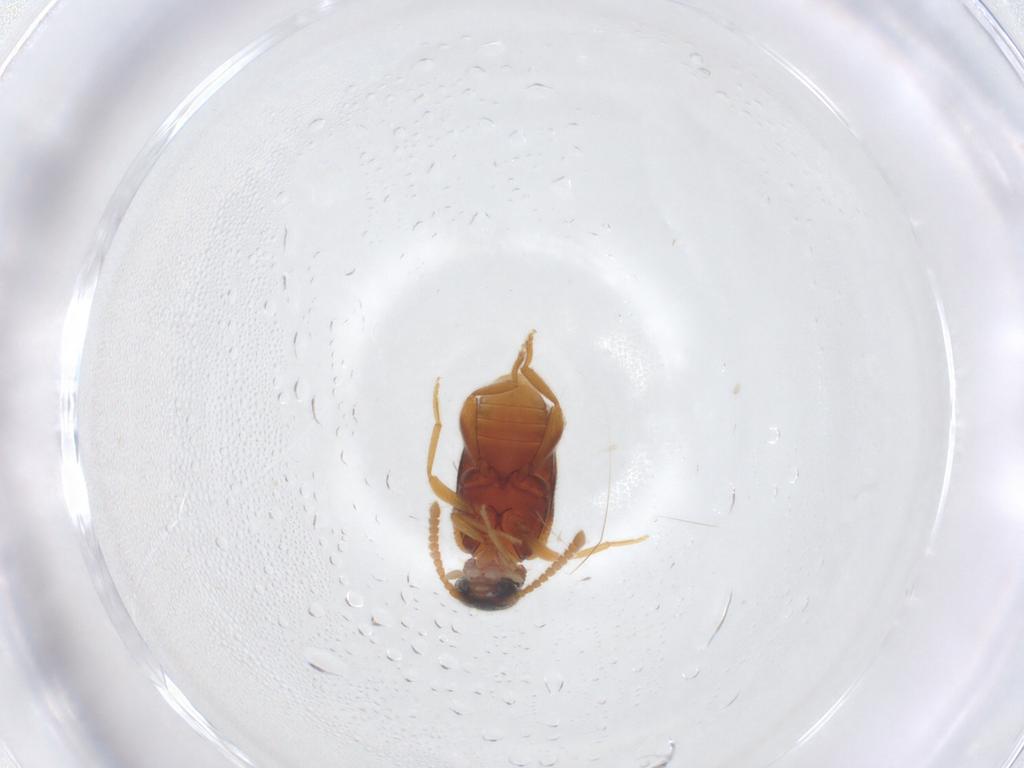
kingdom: Animalia
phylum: Arthropoda
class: Insecta
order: Coleoptera
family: Aderidae
